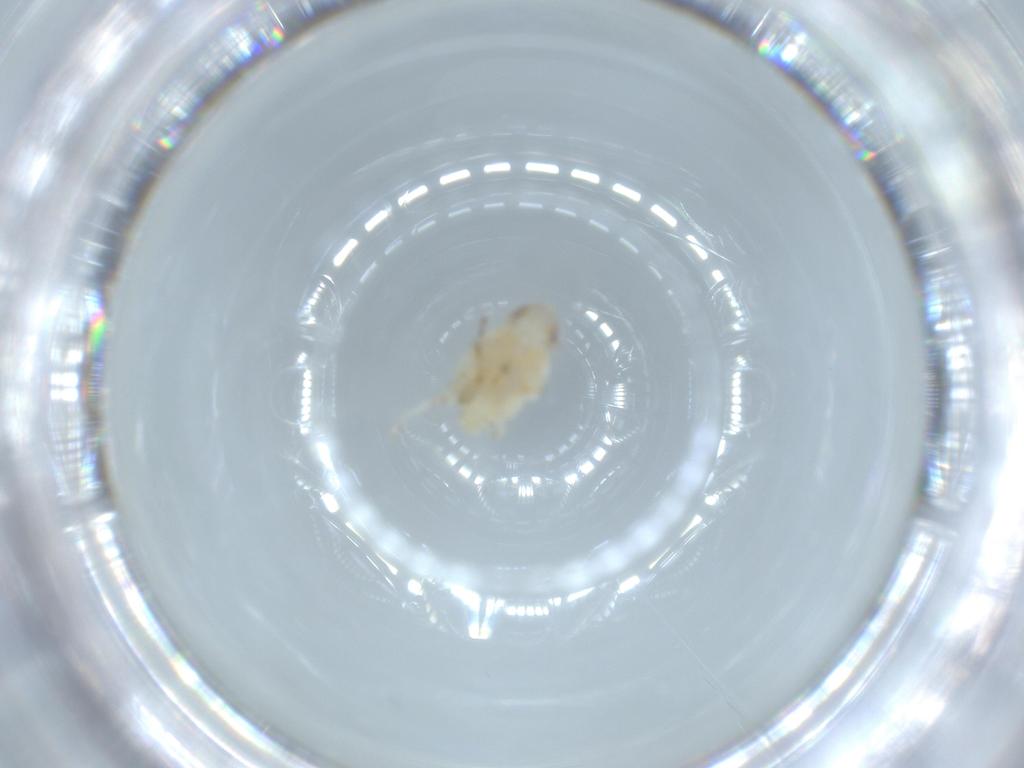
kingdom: Animalia
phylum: Arthropoda
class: Insecta
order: Hemiptera
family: Nogodinidae
